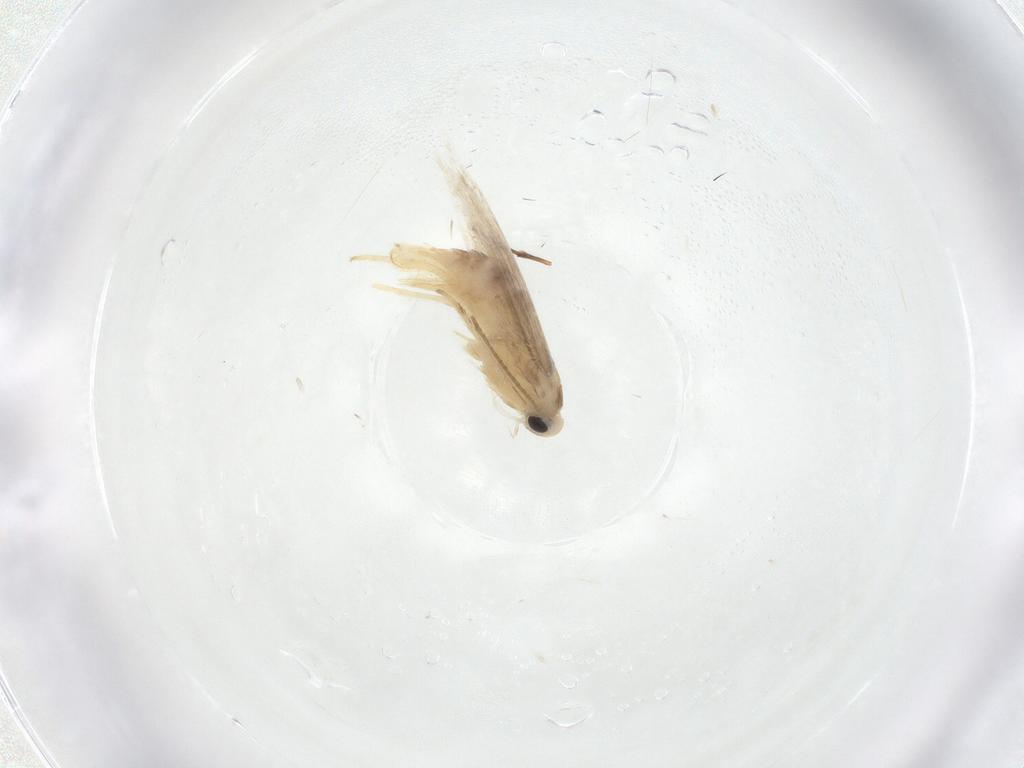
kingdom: Animalia
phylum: Arthropoda
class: Insecta
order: Lepidoptera
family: Gracillariidae
